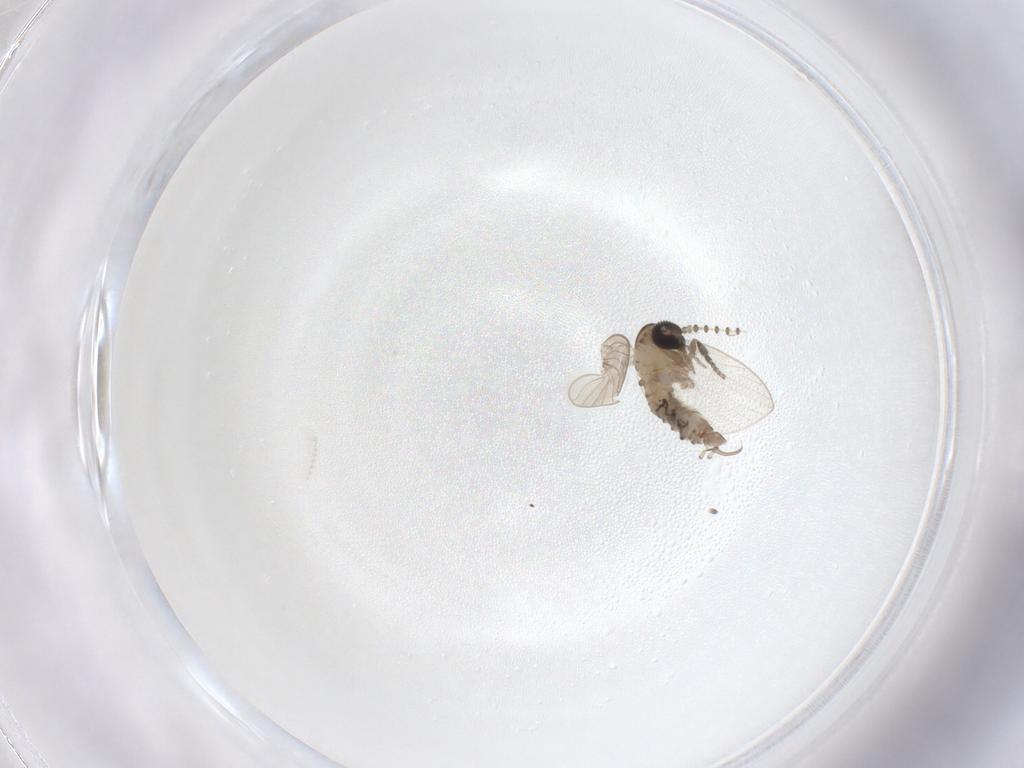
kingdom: Animalia
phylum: Arthropoda
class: Insecta
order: Diptera
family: Psychodidae
